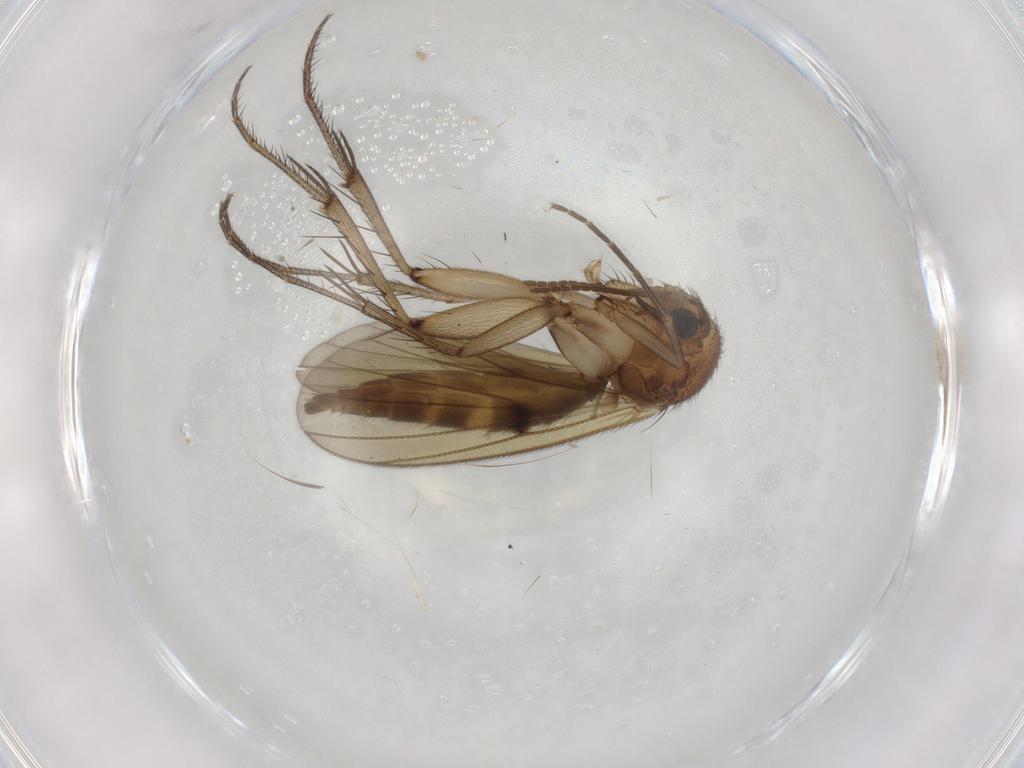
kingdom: Animalia
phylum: Arthropoda
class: Insecta
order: Diptera
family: Mycetophilidae
